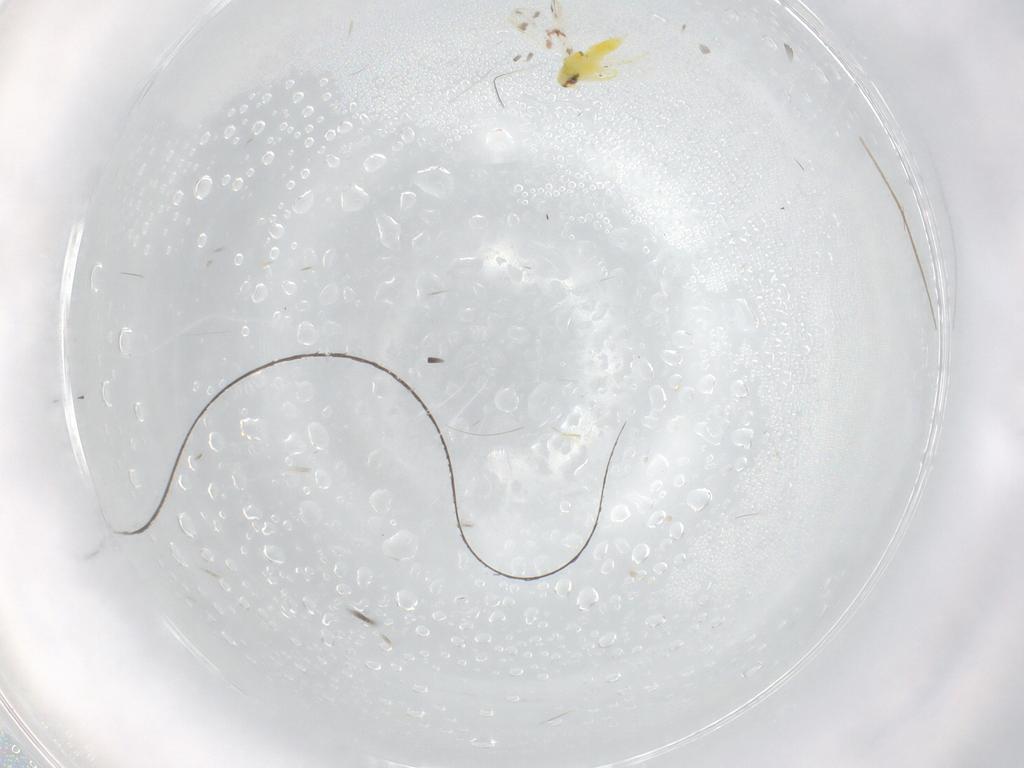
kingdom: Animalia
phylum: Arthropoda
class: Insecta
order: Hemiptera
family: Aleyrodidae
